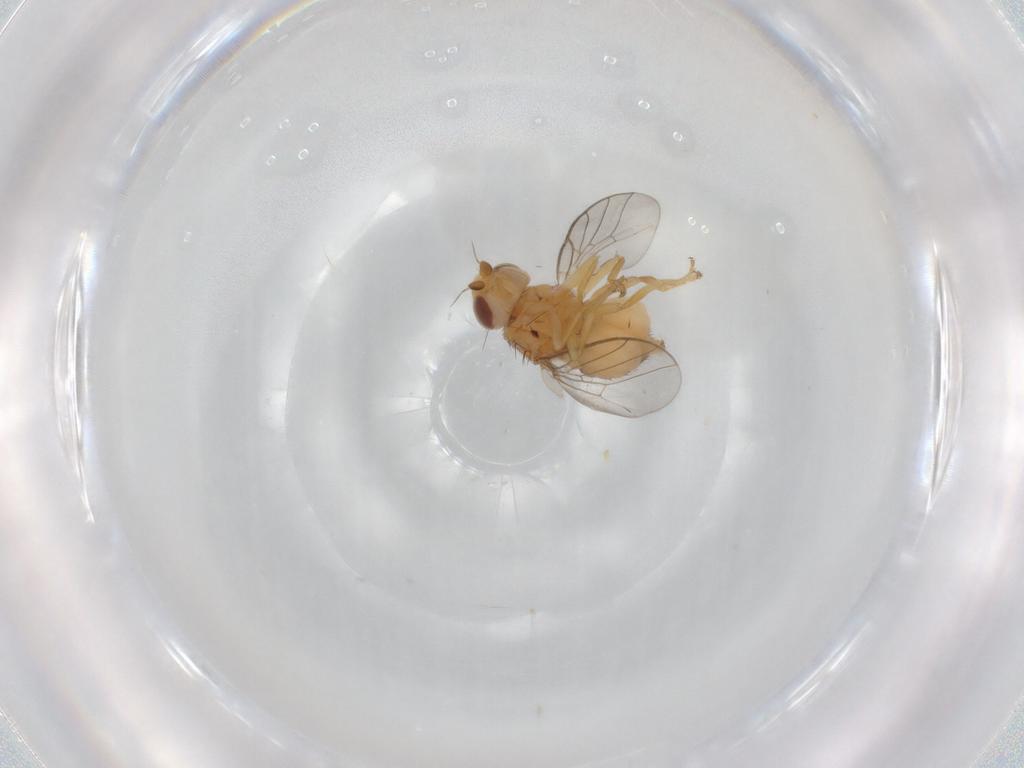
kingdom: Animalia
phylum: Arthropoda
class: Insecta
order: Diptera
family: Chloropidae
